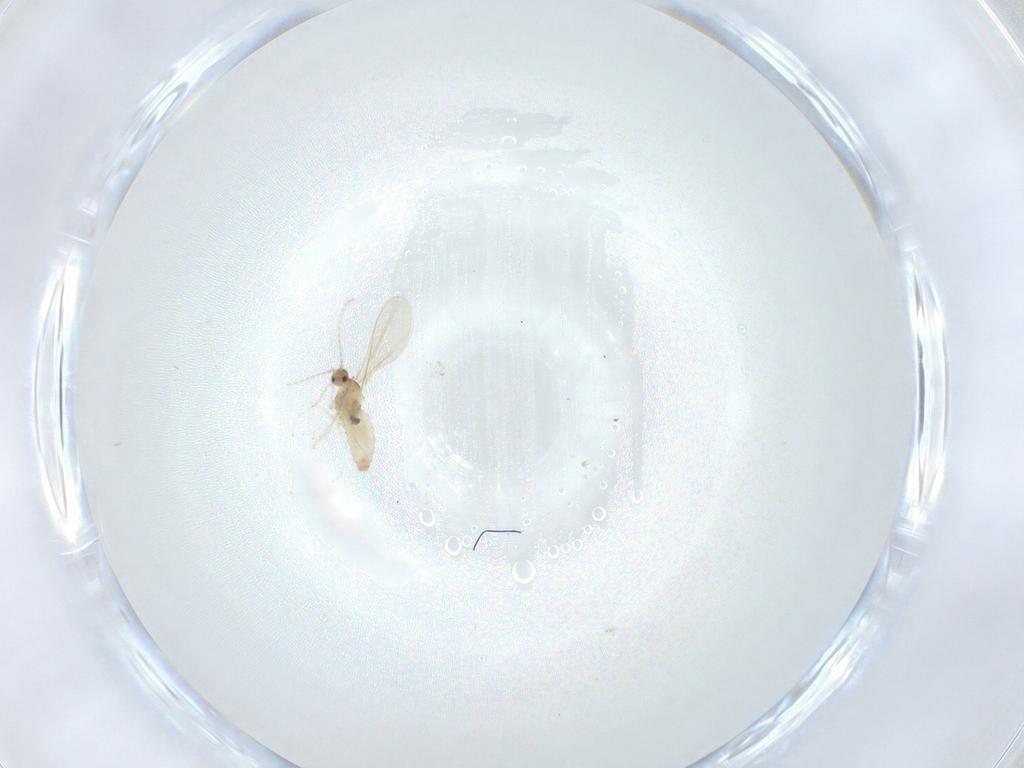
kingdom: Animalia
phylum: Arthropoda
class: Insecta
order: Diptera
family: Cecidomyiidae
